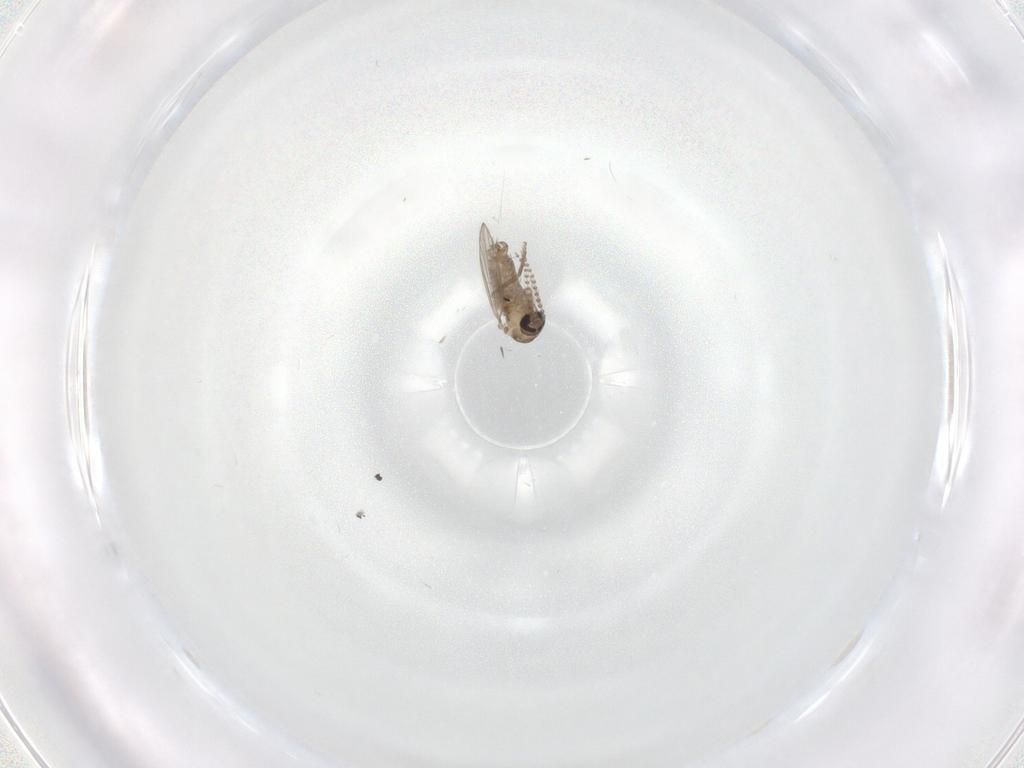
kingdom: Animalia
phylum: Arthropoda
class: Insecta
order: Diptera
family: Psychodidae
